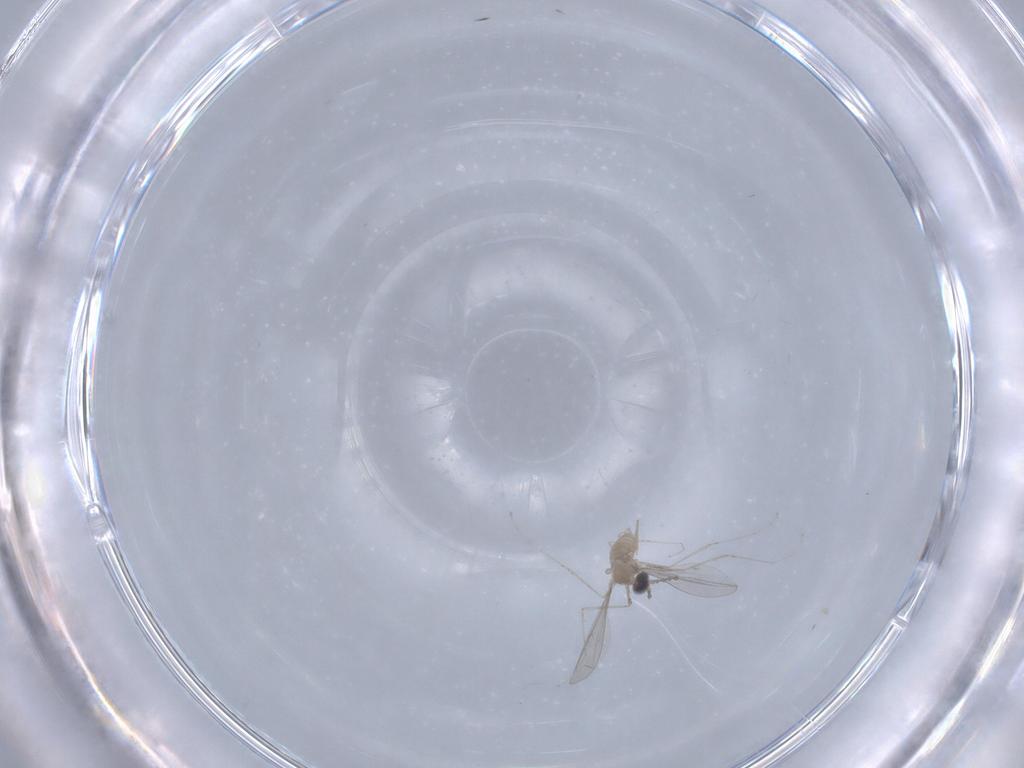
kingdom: Animalia
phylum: Arthropoda
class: Insecta
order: Diptera
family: Cecidomyiidae
